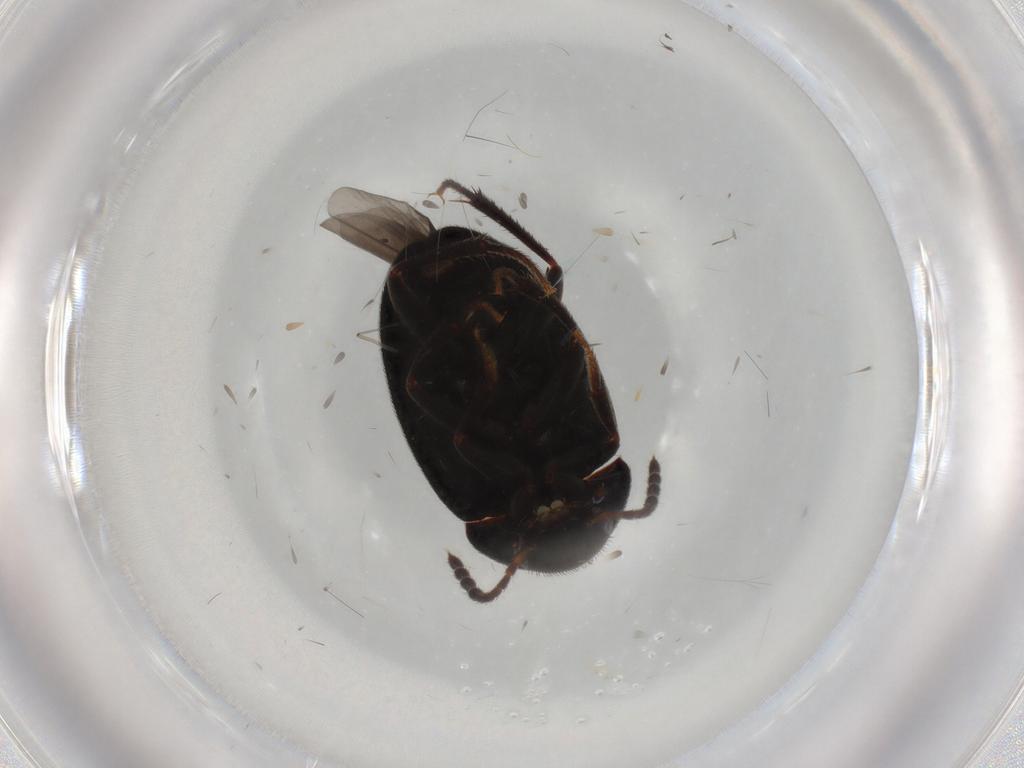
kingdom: Animalia
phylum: Arthropoda
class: Insecta
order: Coleoptera
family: Leiodidae
